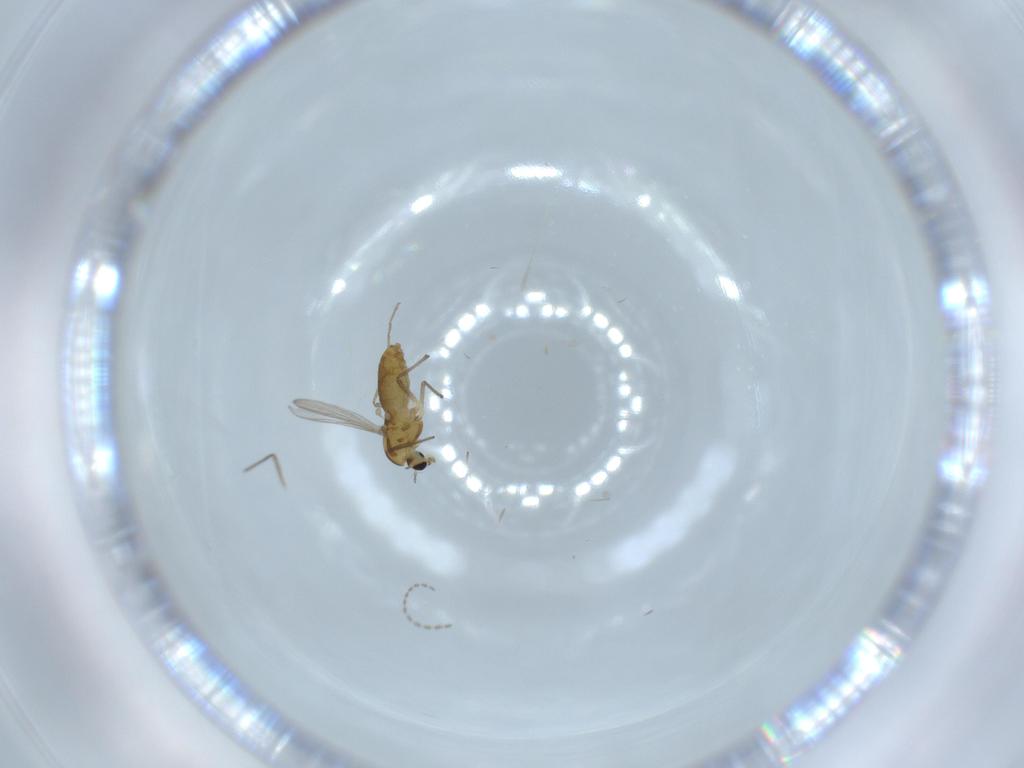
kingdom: Animalia
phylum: Arthropoda
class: Insecta
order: Diptera
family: Chironomidae
